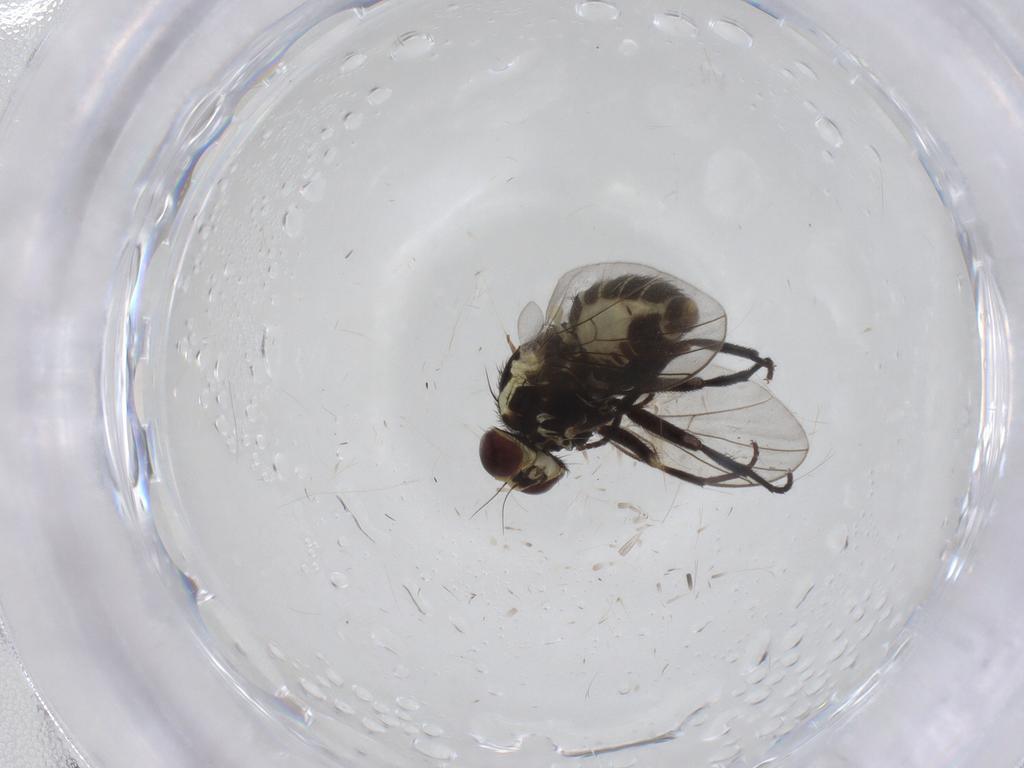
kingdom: Animalia
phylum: Arthropoda
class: Insecta
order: Diptera
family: Agromyzidae
